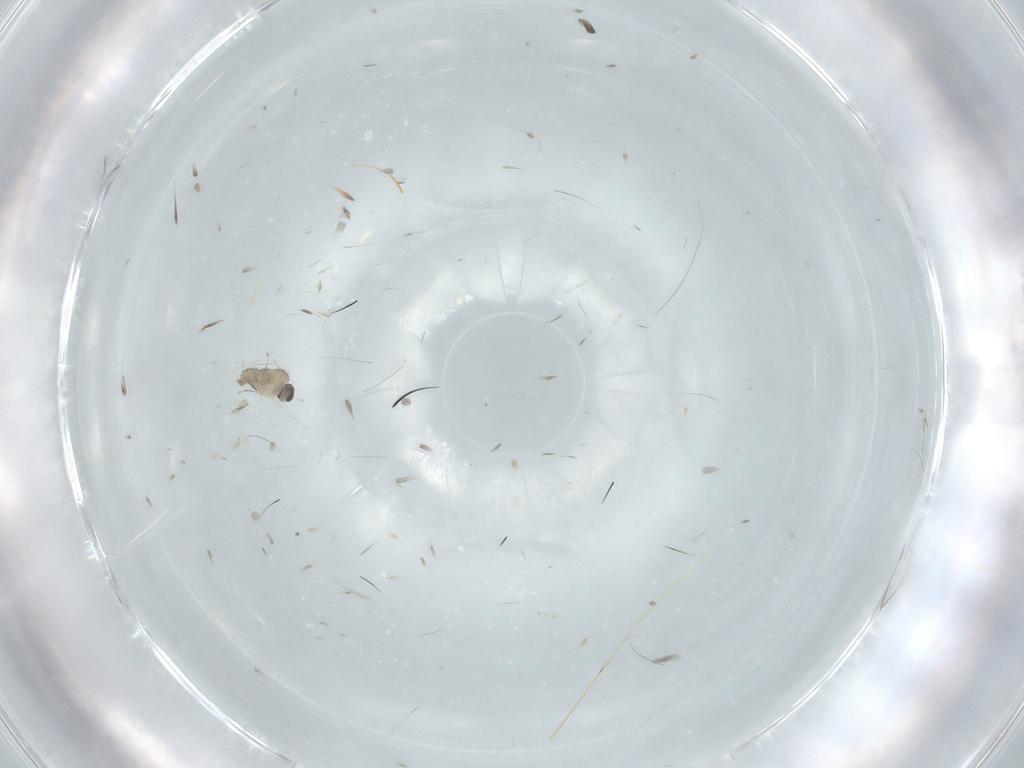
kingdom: Animalia
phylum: Arthropoda
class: Insecta
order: Diptera
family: Cecidomyiidae
